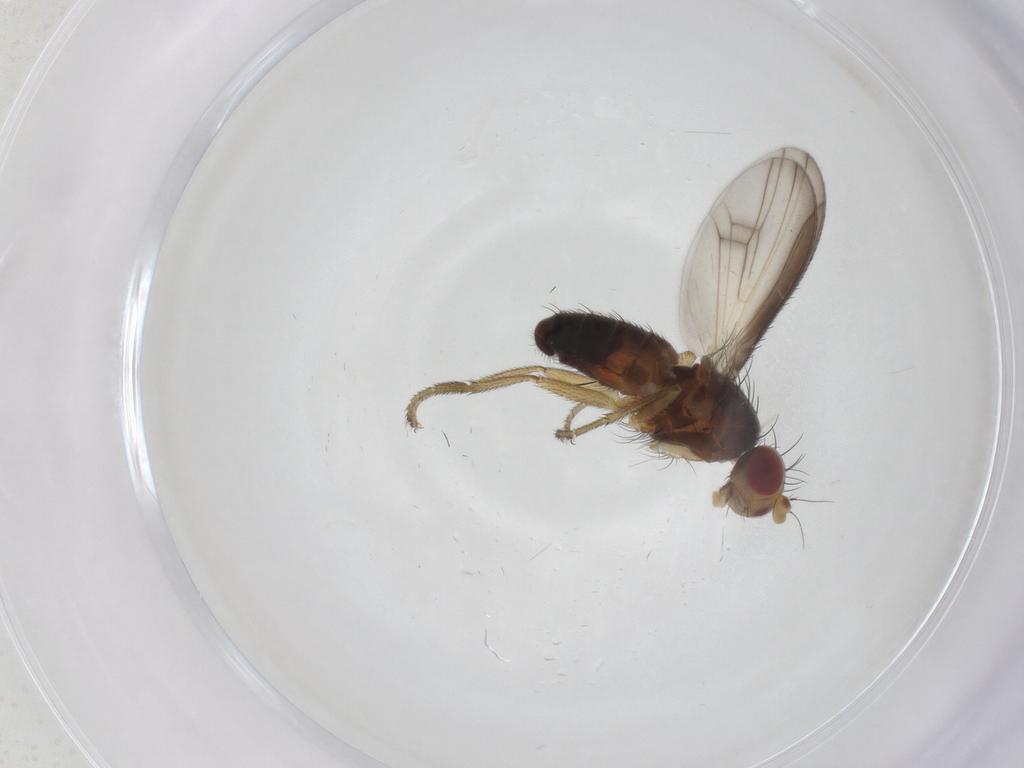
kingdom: Animalia
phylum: Arthropoda
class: Insecta
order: Diptera
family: Heleomyzidae
